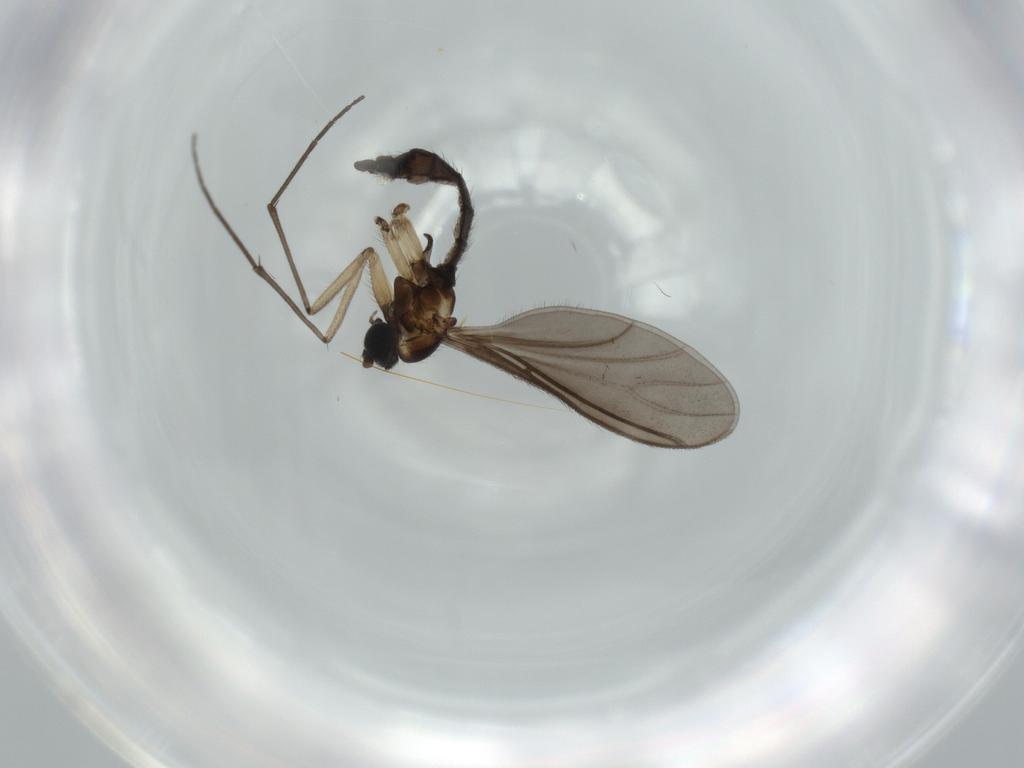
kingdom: Animalia
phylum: Arthropoda
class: Insecta
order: Diptera
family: Sciaridae
